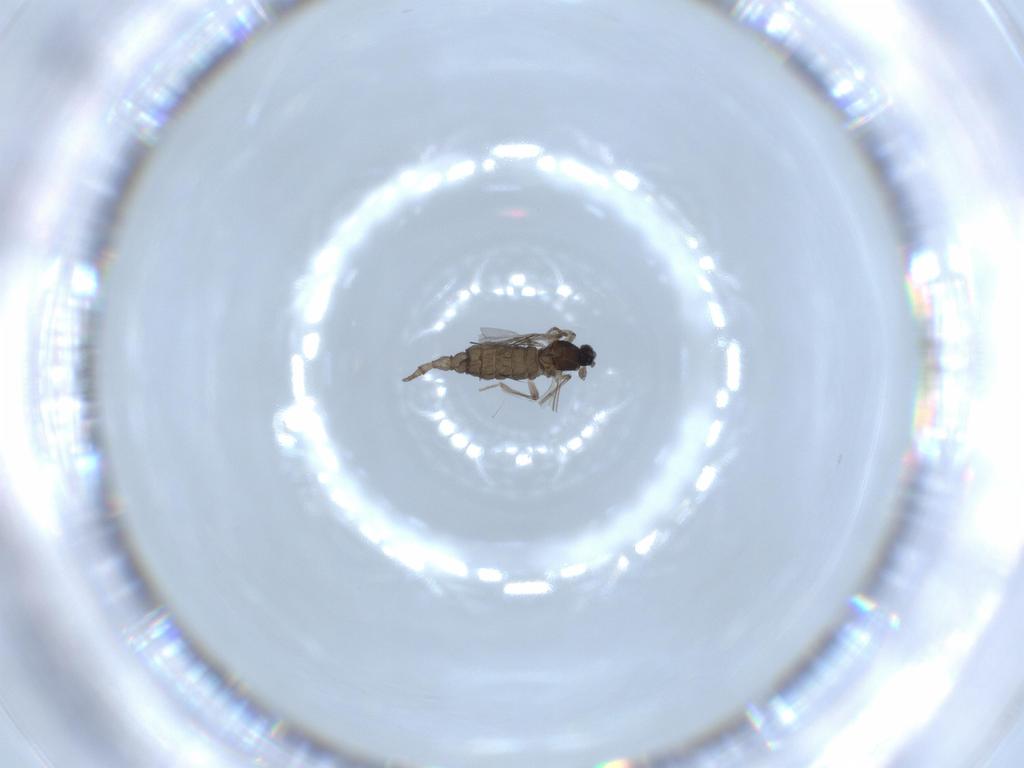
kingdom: Animalia
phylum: Arthropoda
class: Insecta
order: Diptera
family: Cecidomyiidae
